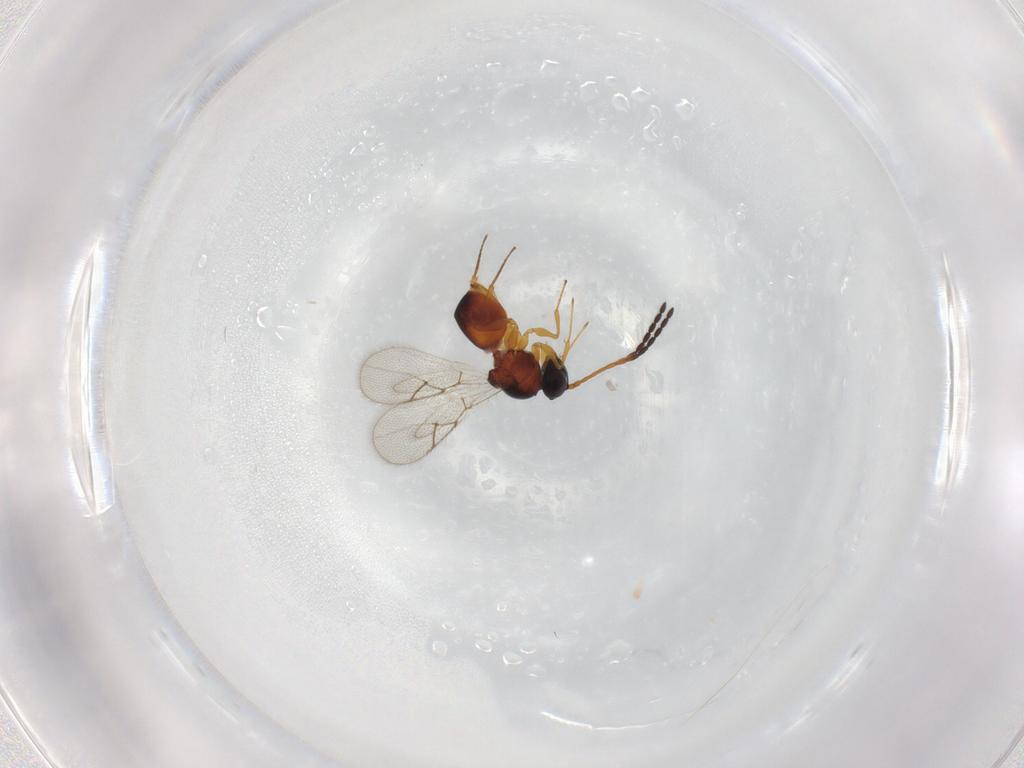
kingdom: Animalia
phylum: Arthropoda
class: Insecta
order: Hymenoptera
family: Figitidae
